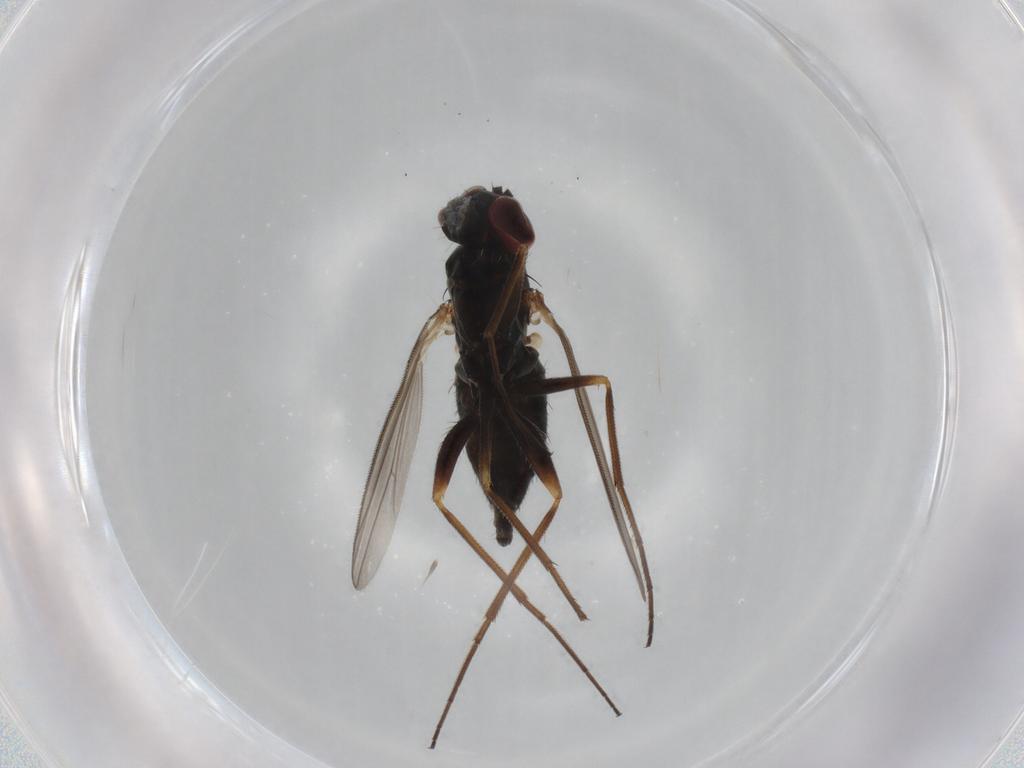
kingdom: Animalia
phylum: Arthropoda
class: Insecta
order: Diptera
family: Dolichopodidae
